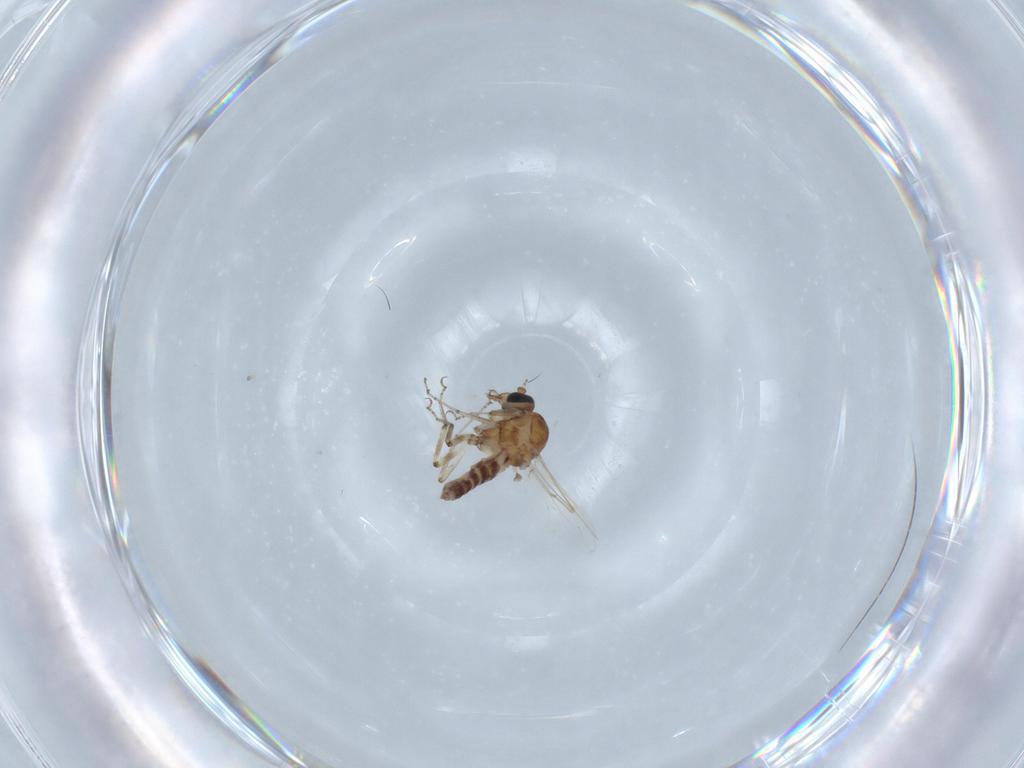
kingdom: Animalia
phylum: Arthropoda
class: Insecta
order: Diptera
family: Ceratopogonidae
